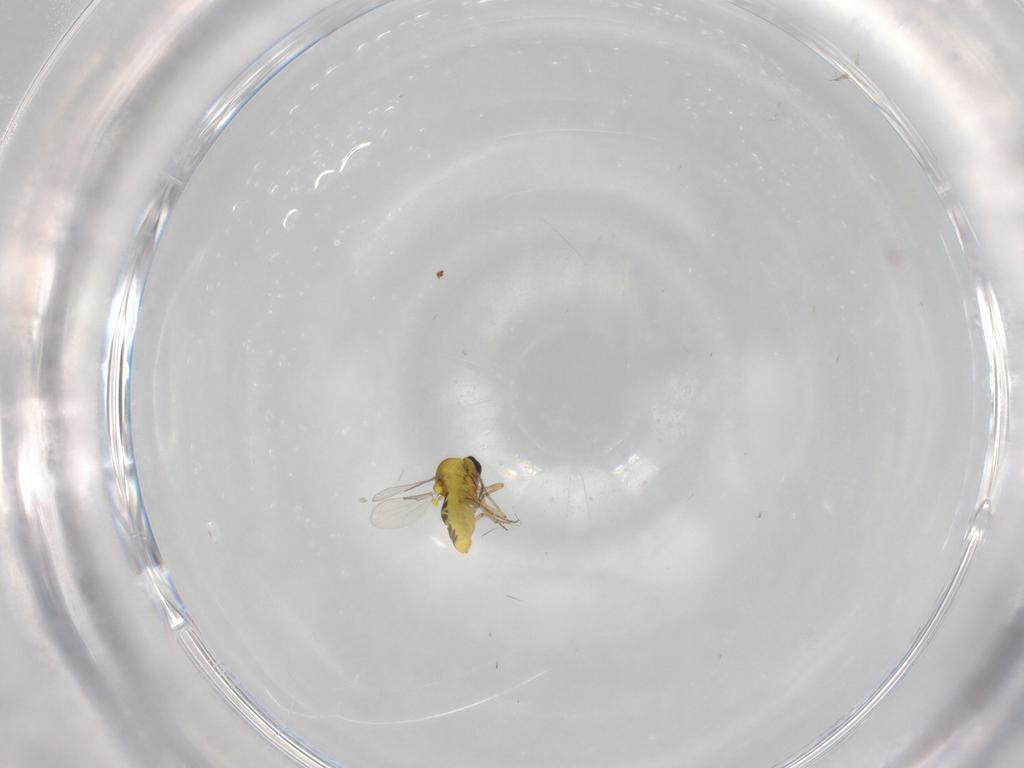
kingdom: Animalia
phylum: Arthropoda
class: Insecta
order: Diptera
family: Ceratopogonidae
